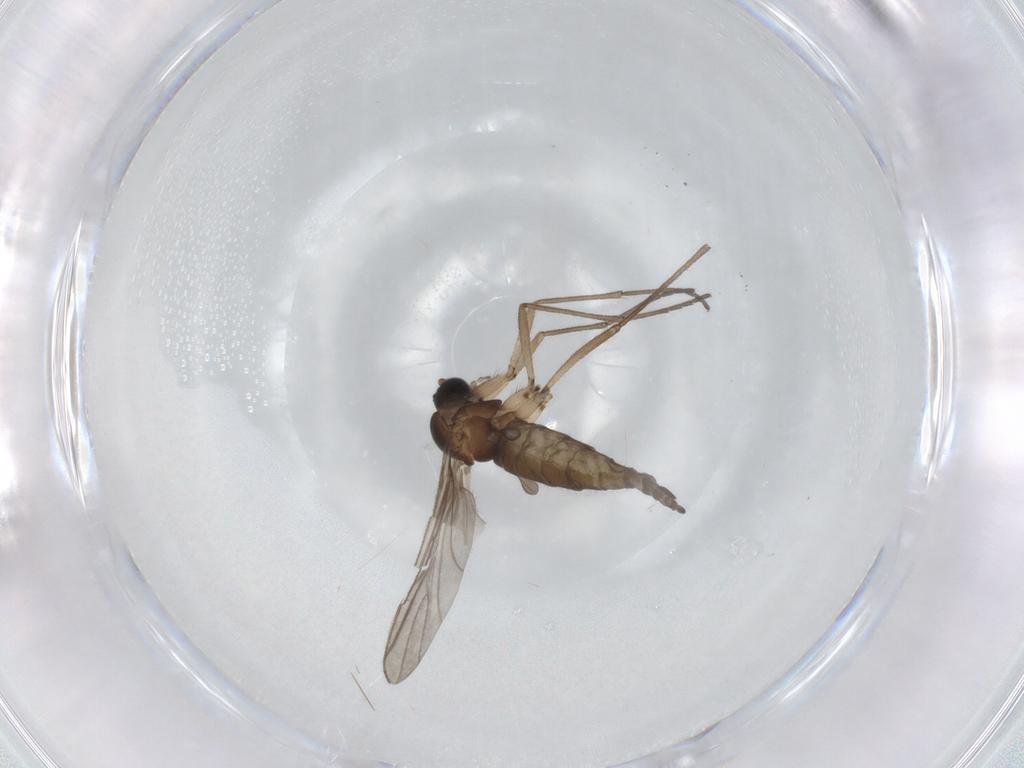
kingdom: Animalia
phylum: Arthropoda
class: Insecta
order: Diptera
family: Sciaridae
